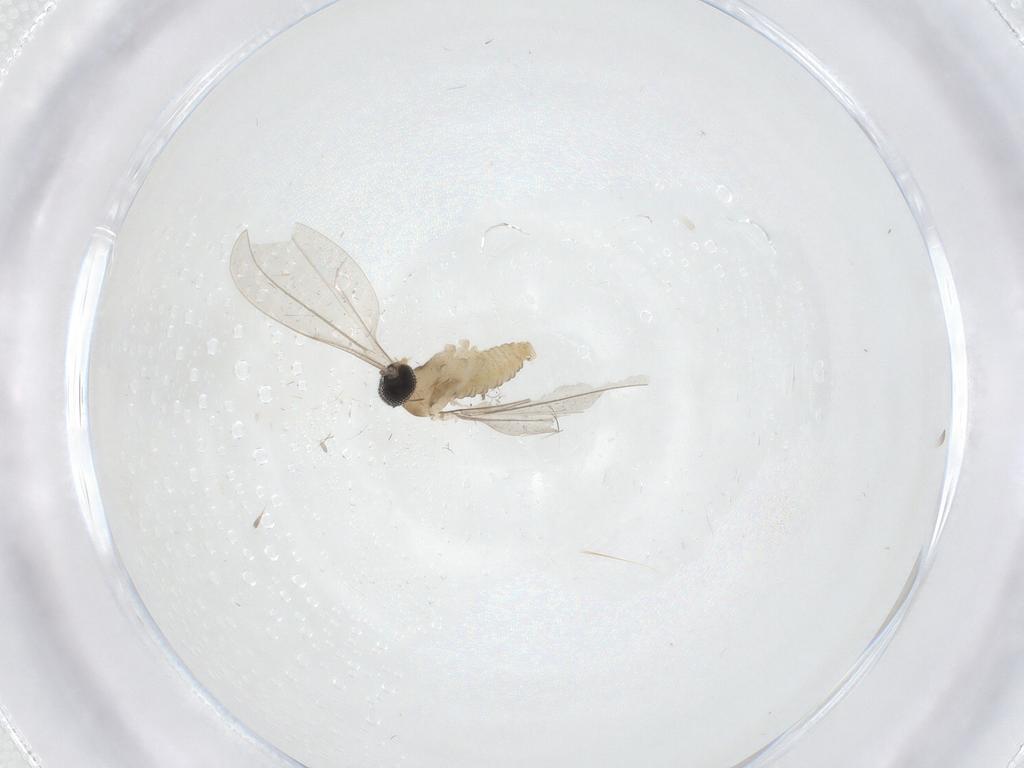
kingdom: Animalia
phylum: Arthropoda
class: Insecta
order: Diptera
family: Cecidomyiidae
